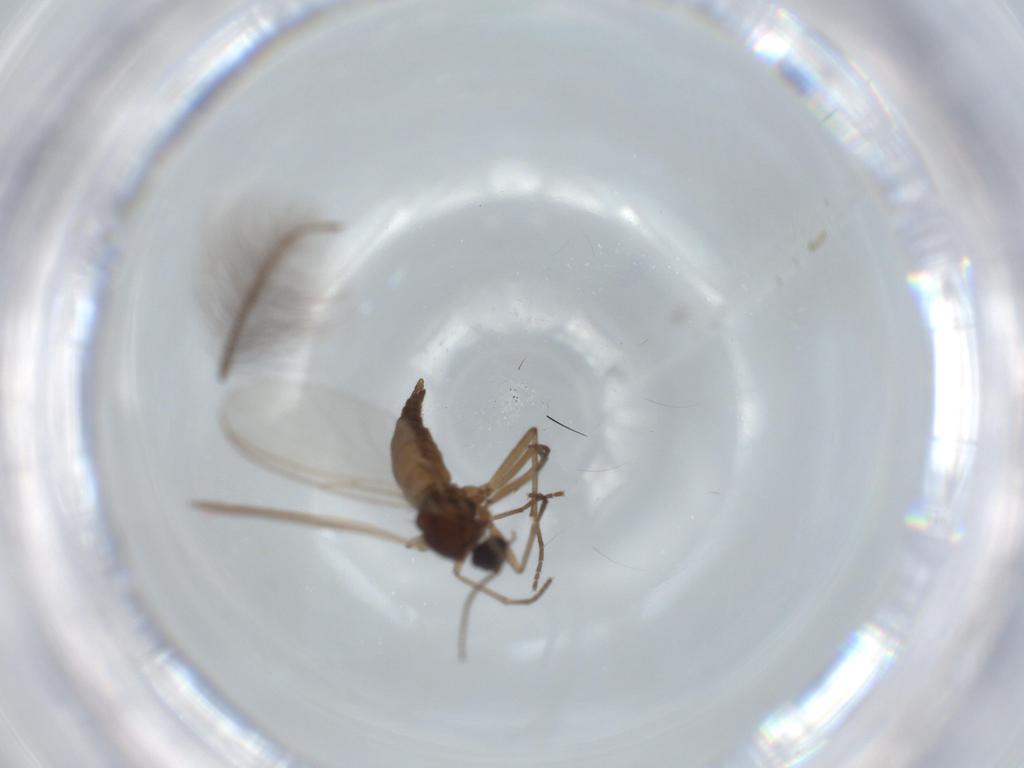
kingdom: Animalia
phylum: Arthropoda
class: Insecta
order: Diptera
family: Sciaridae
